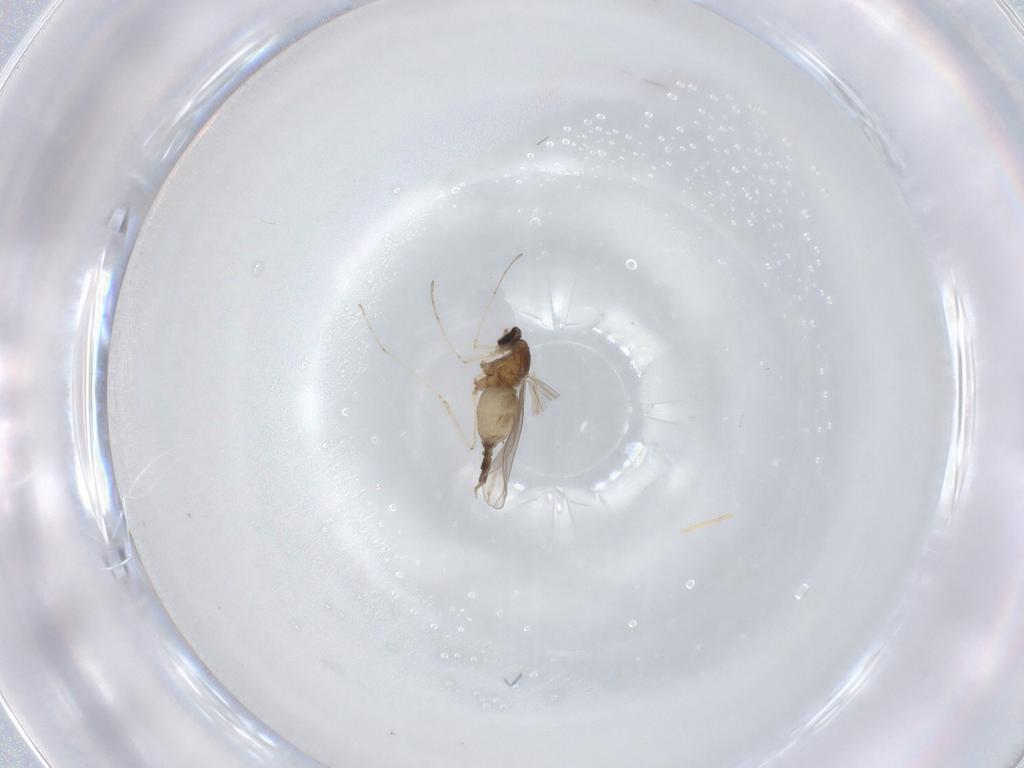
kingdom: Animalia
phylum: Arthropoda
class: Insecta
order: Diptera
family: Cecidomyiidae
